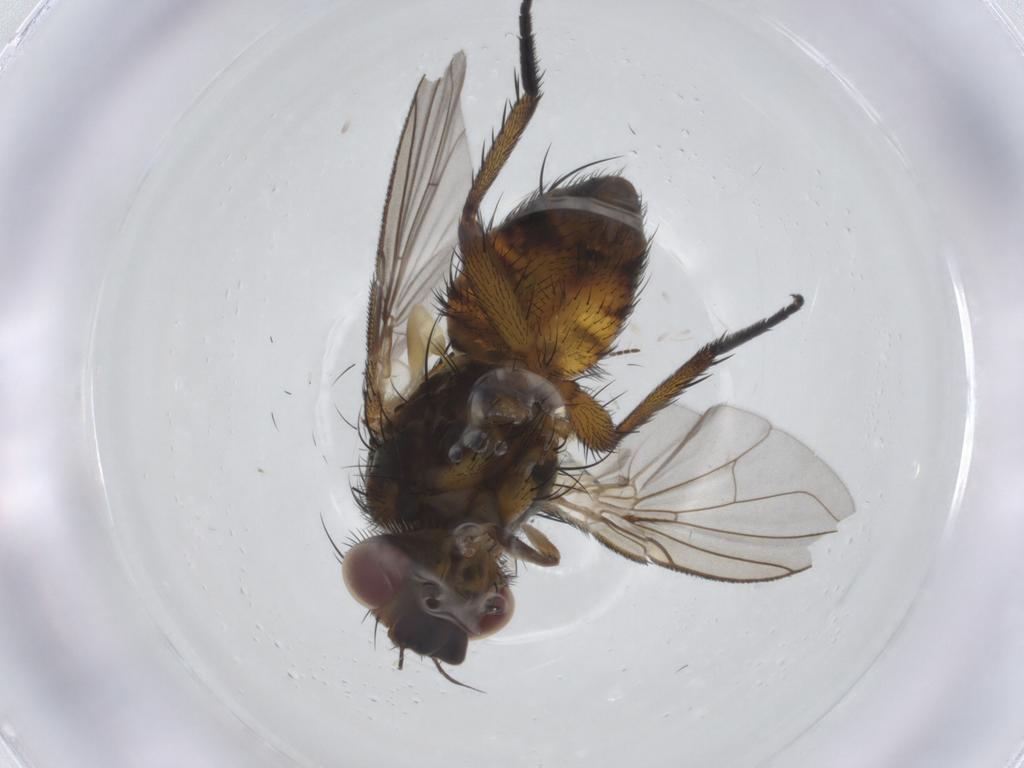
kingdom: Animalia
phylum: Arthropoda
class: Insecta
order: Diptera
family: Tachinidae
